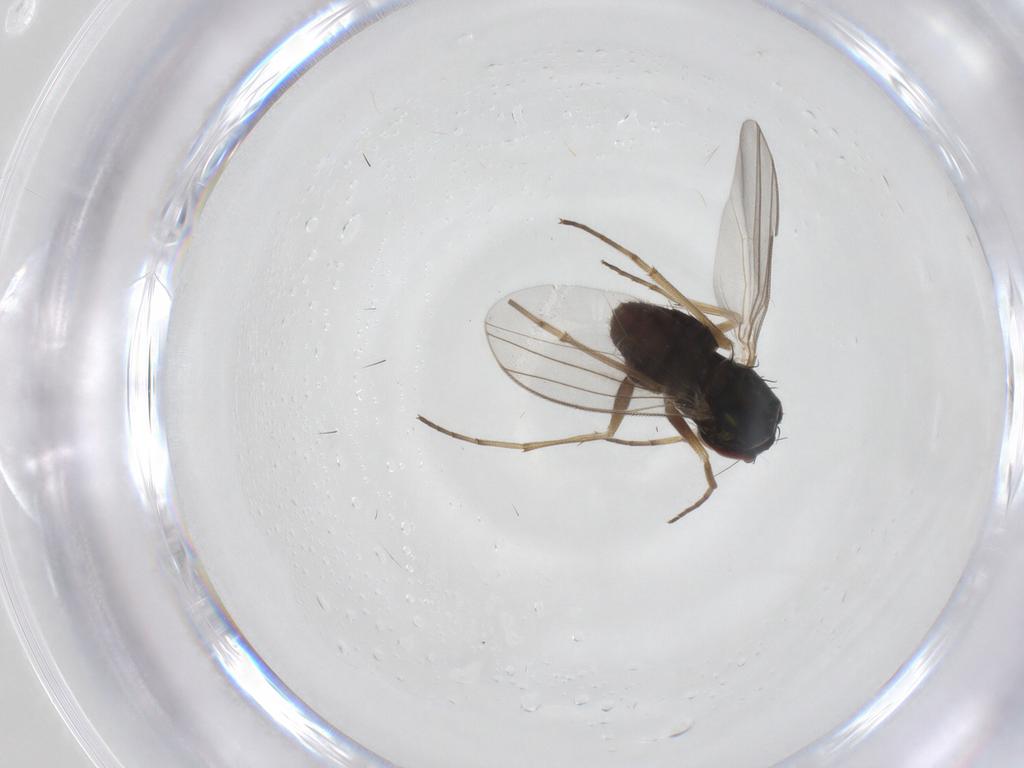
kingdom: Animalia
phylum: Arthropoda
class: Insecta
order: Diptera
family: Dolichopodidae
